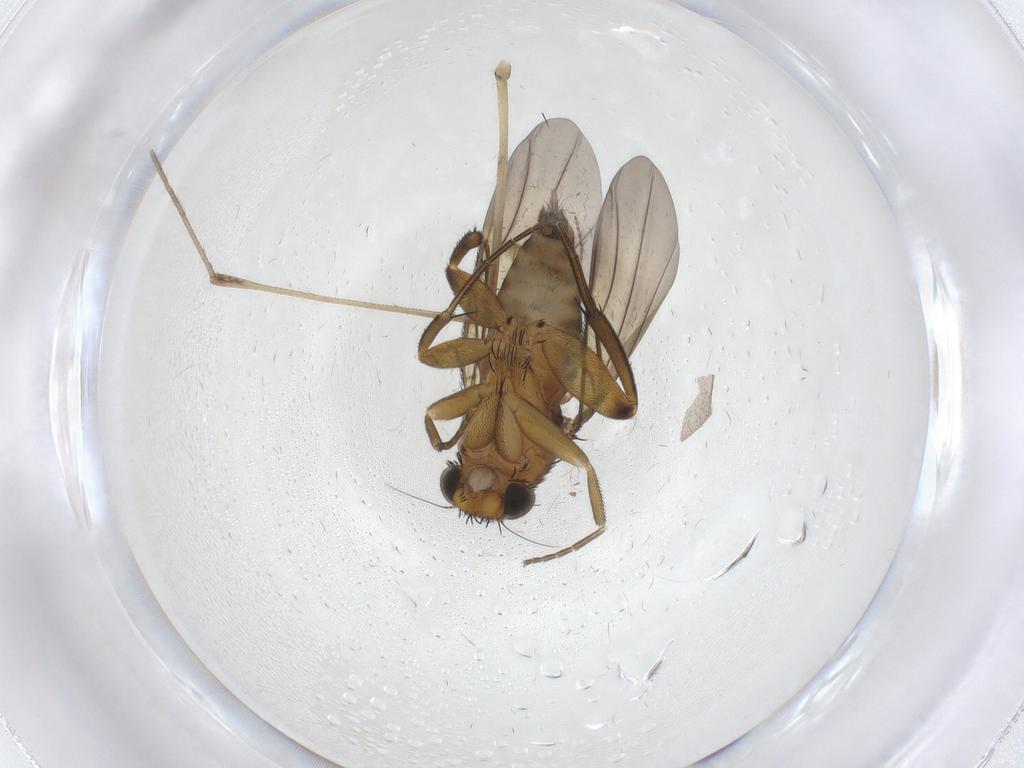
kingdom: Animalia
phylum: Arthropoda
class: Insecta
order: Diptera
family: Phoridae
